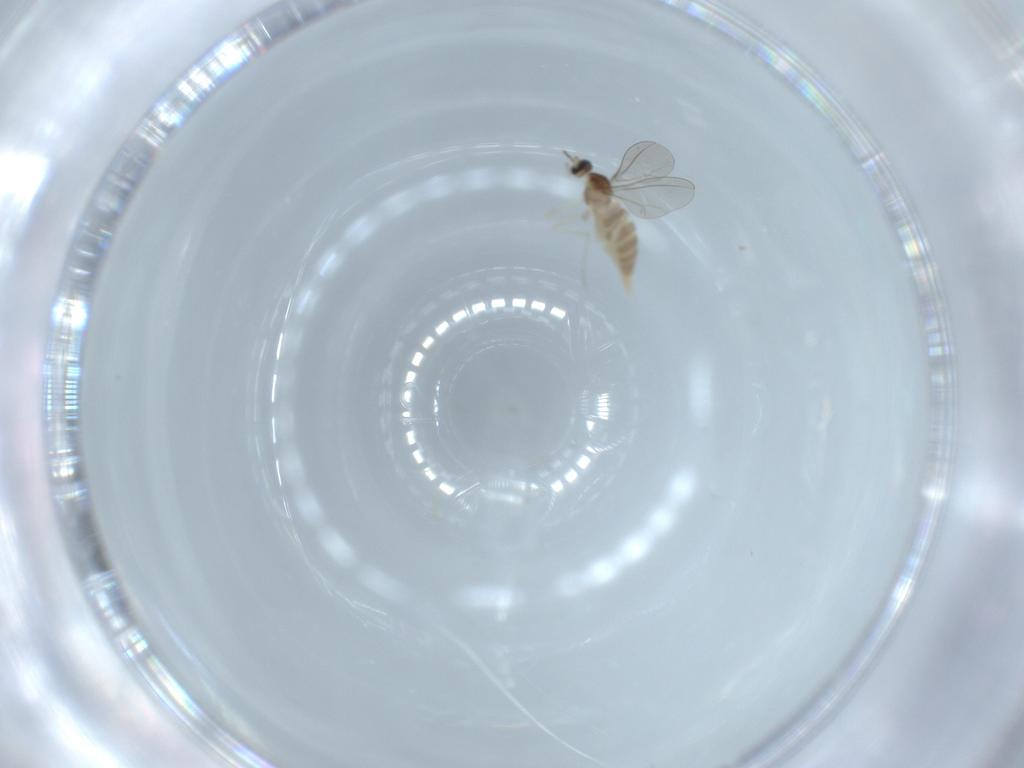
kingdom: Animalia
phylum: Arthropoda
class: Insecta
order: Diptera
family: Cecidomyiidae
